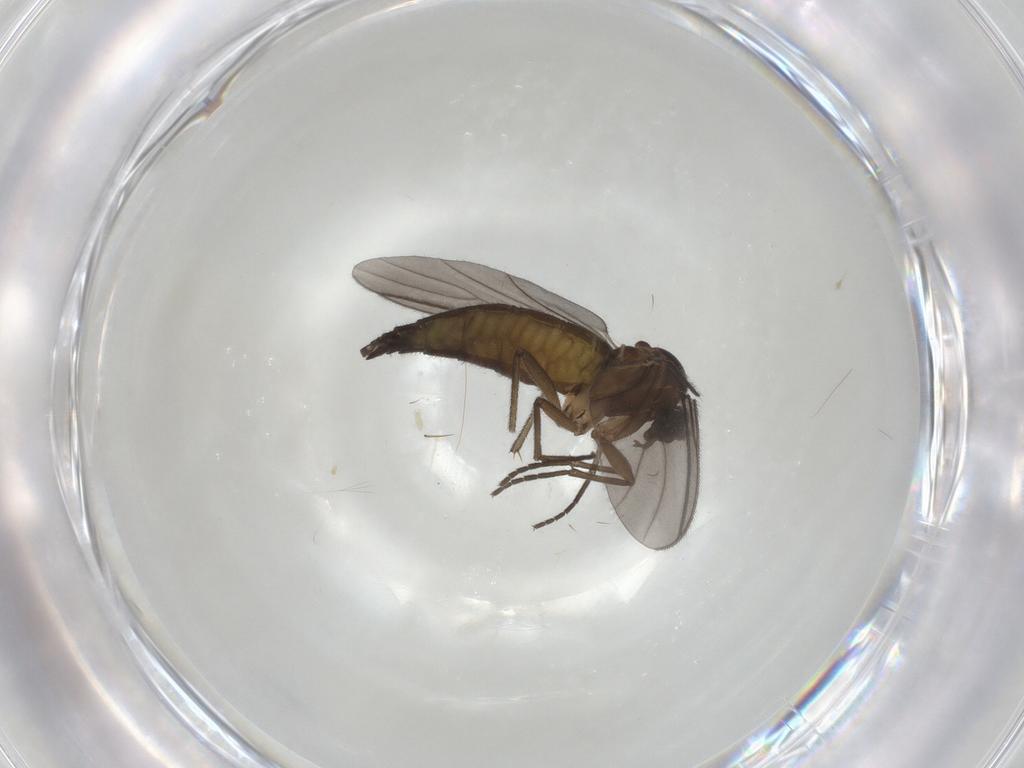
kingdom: Animalia
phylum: Arthropoda
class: Insecta
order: Diptera
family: Sciaridae
